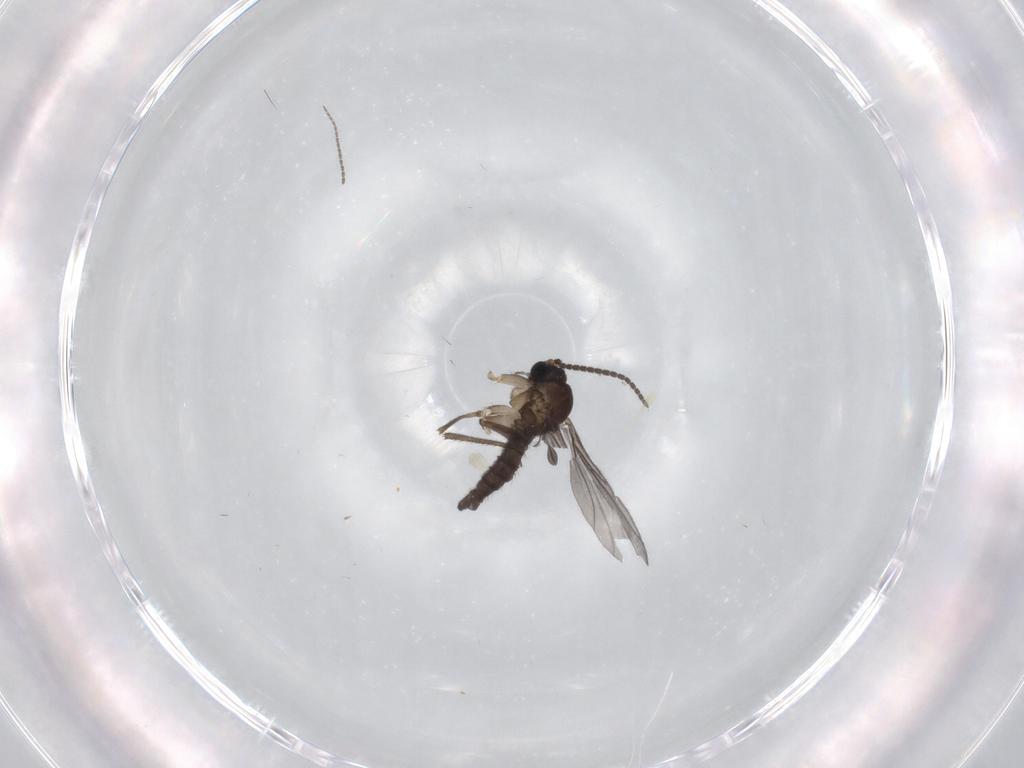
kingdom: Animalia
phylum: Arthropoda
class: Insecta
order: Diptera
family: Sciaridae
